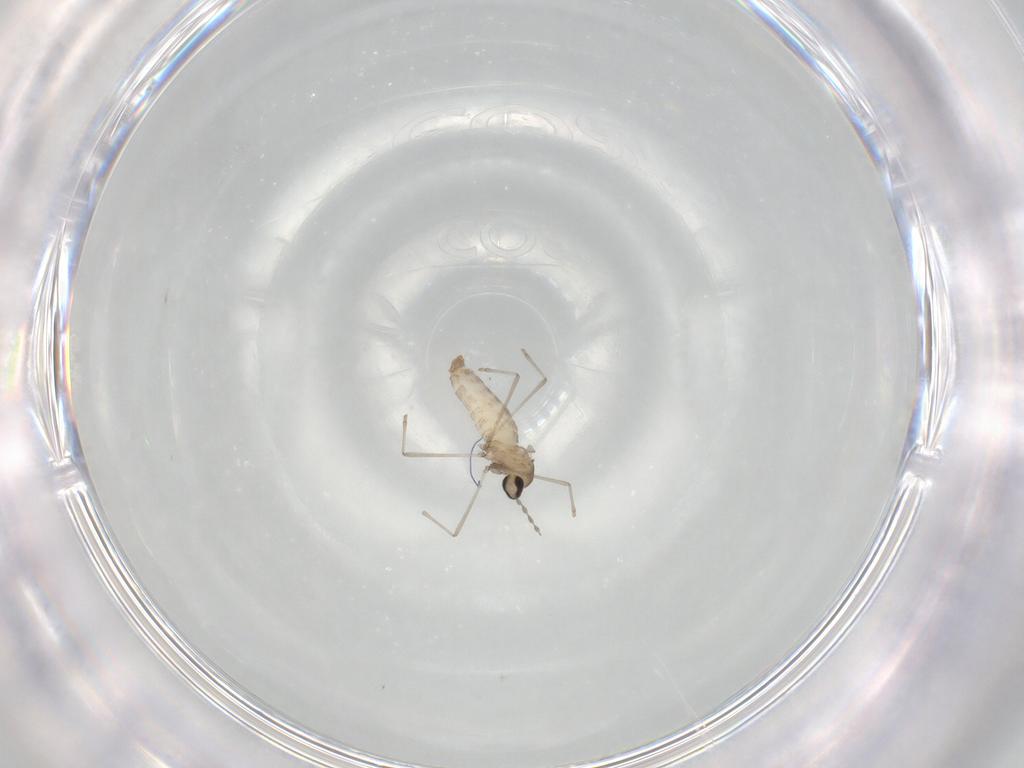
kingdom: Animalia
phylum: Arthropoda
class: Insecta
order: Diptera
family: Cecidomyiidae
